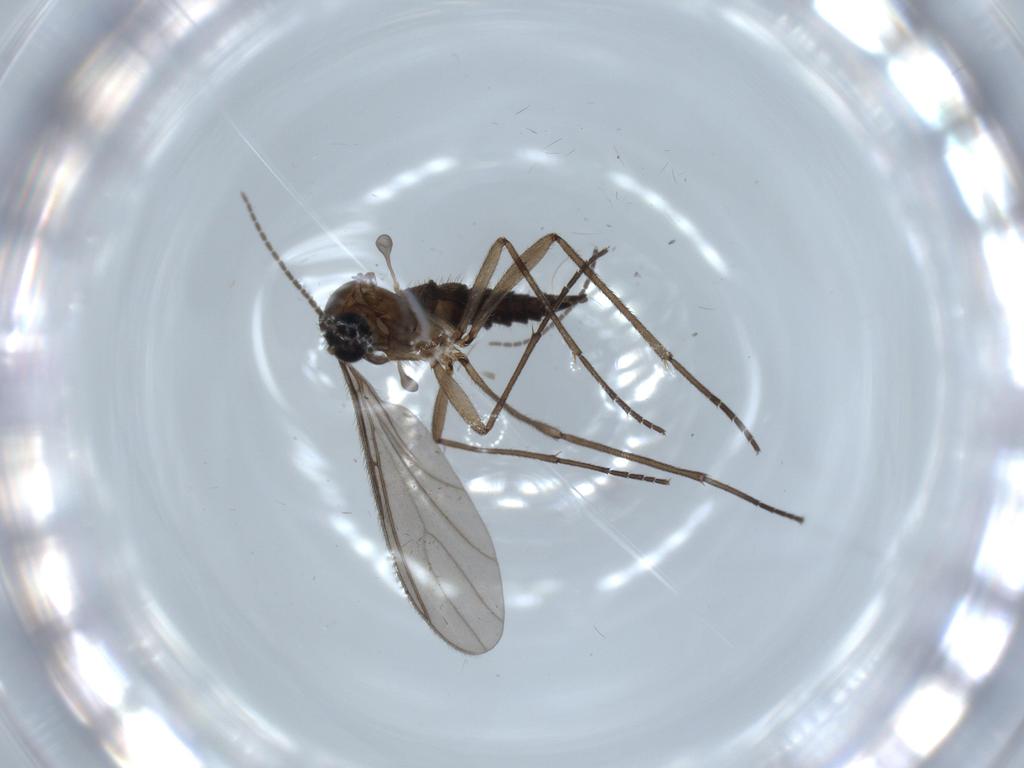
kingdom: Animalia
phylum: Arthropoda
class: Insecta
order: Diptera
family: Sciaridae
